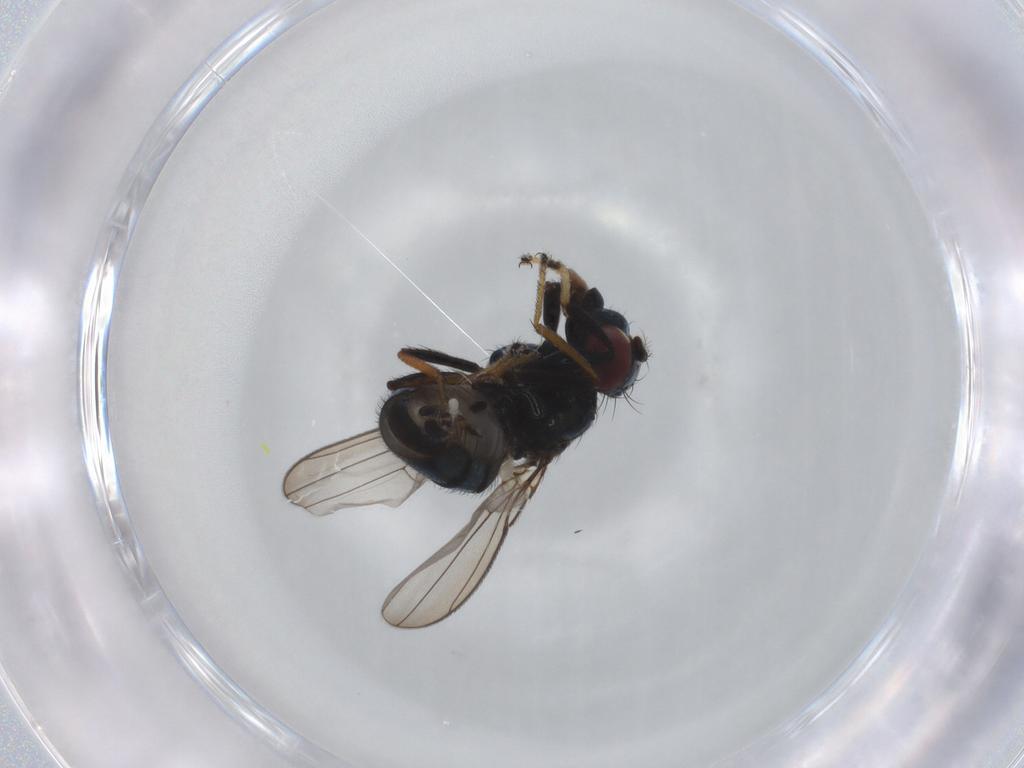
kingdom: Animalia
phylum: Arthropoda
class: Insecta
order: Diptera
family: Ephydridae
